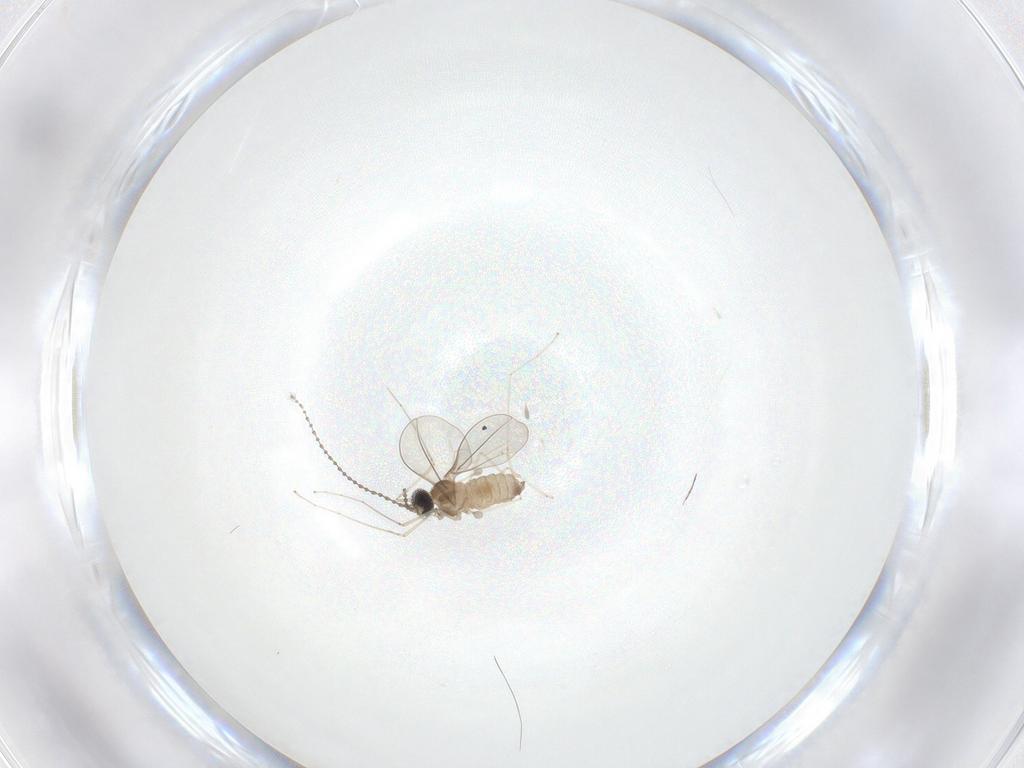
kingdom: Animalia
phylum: Arthropoda
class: Insecta
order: Diptera
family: Cecidomyiidae
